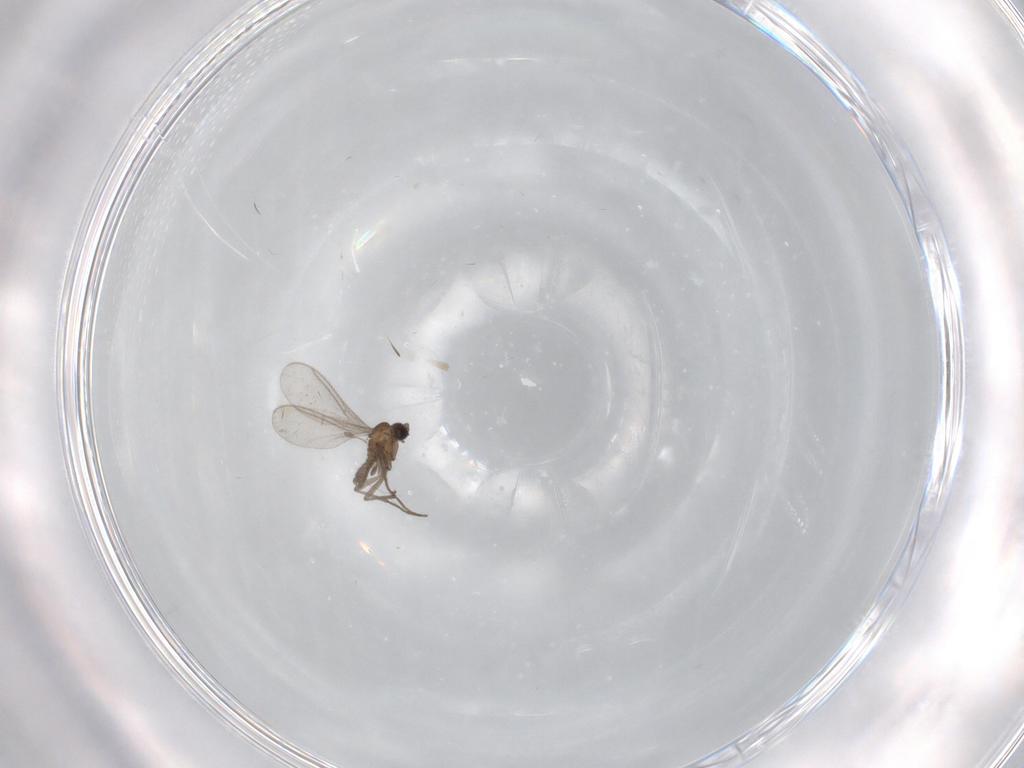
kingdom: Animalia
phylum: Arthropoda
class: Insecta
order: Diptera
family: Sciaridae
